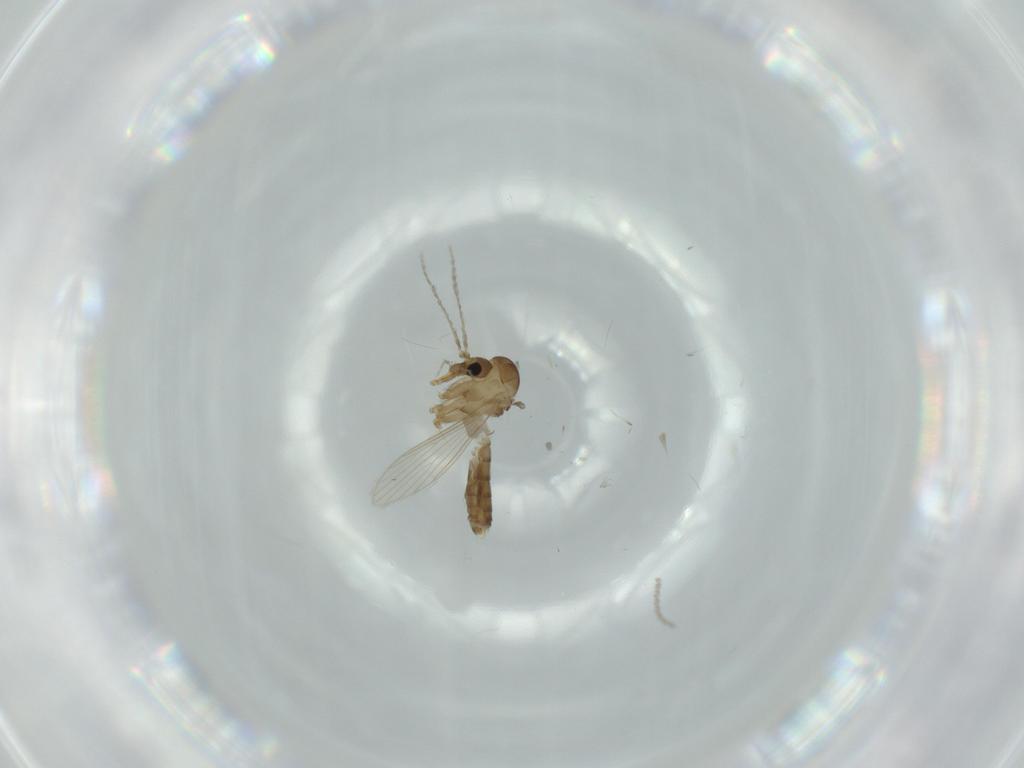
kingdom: Animalia
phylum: Arthropoda
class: Insecta
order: Diptera
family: Psychodidae
